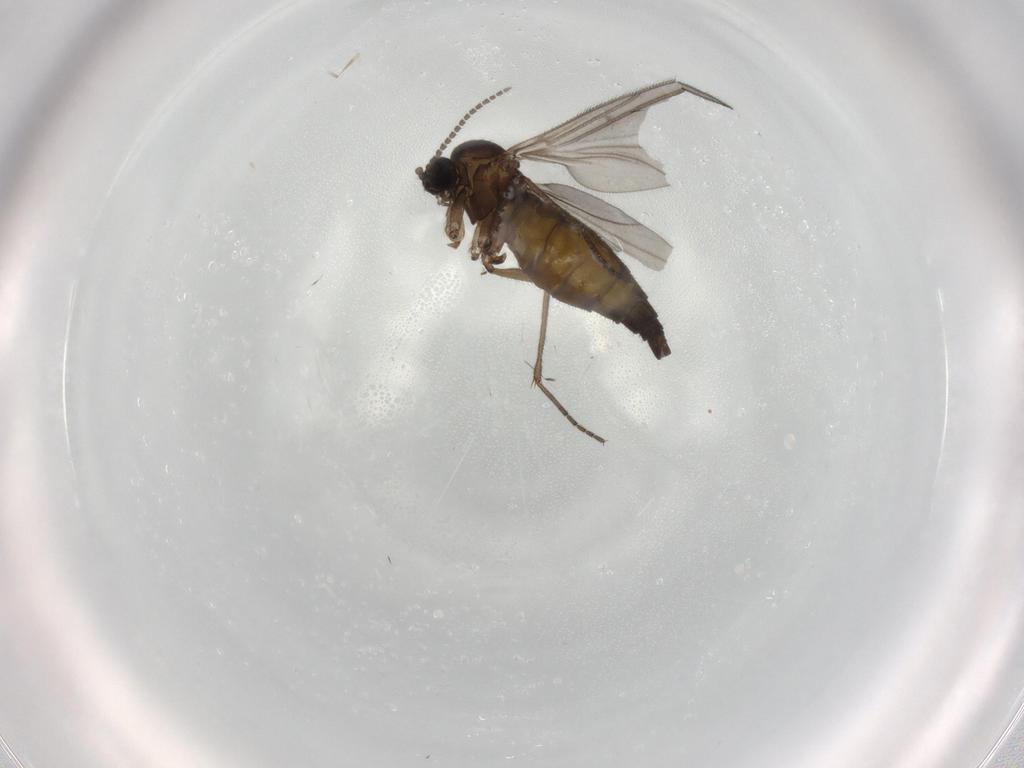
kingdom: Animalia
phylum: Arthropoda
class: Insecta
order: Diptera
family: Sciaridae
